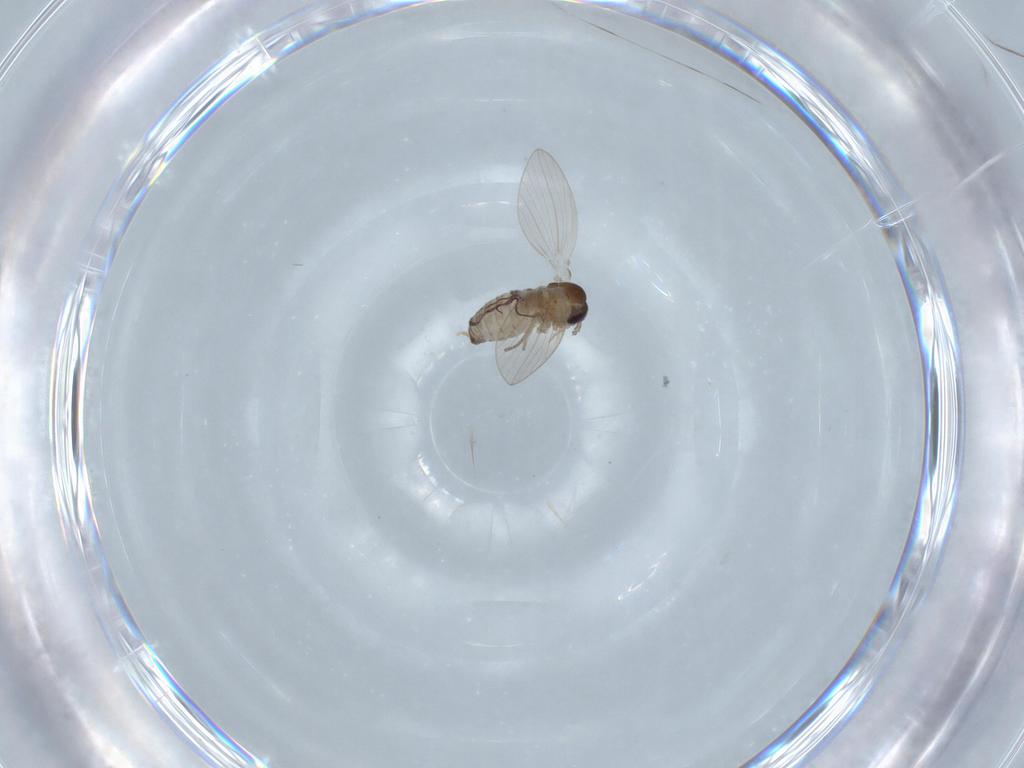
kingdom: Animalia
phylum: Arthropoda
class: Insecta
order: Diptera
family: Psychodidae
